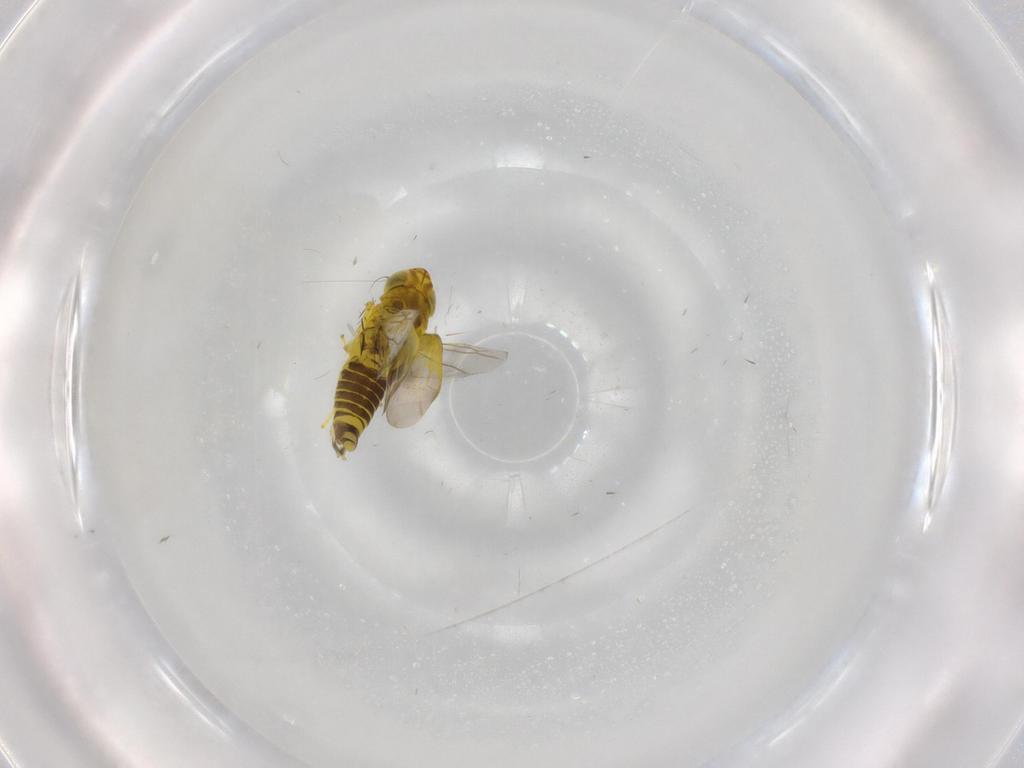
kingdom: Animalia
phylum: Arthropoda
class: Insecta
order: Hemiptera
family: Cicadellidae
